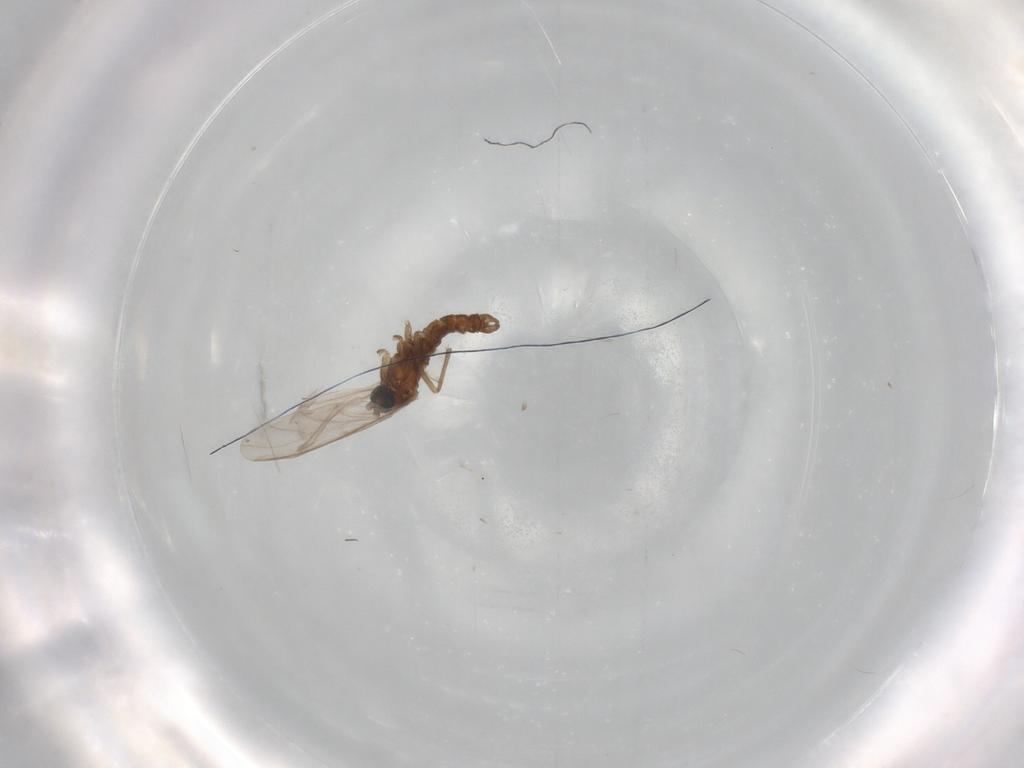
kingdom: Animalia
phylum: Arthropoda
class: Insecta
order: Diptera
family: Carnidae
